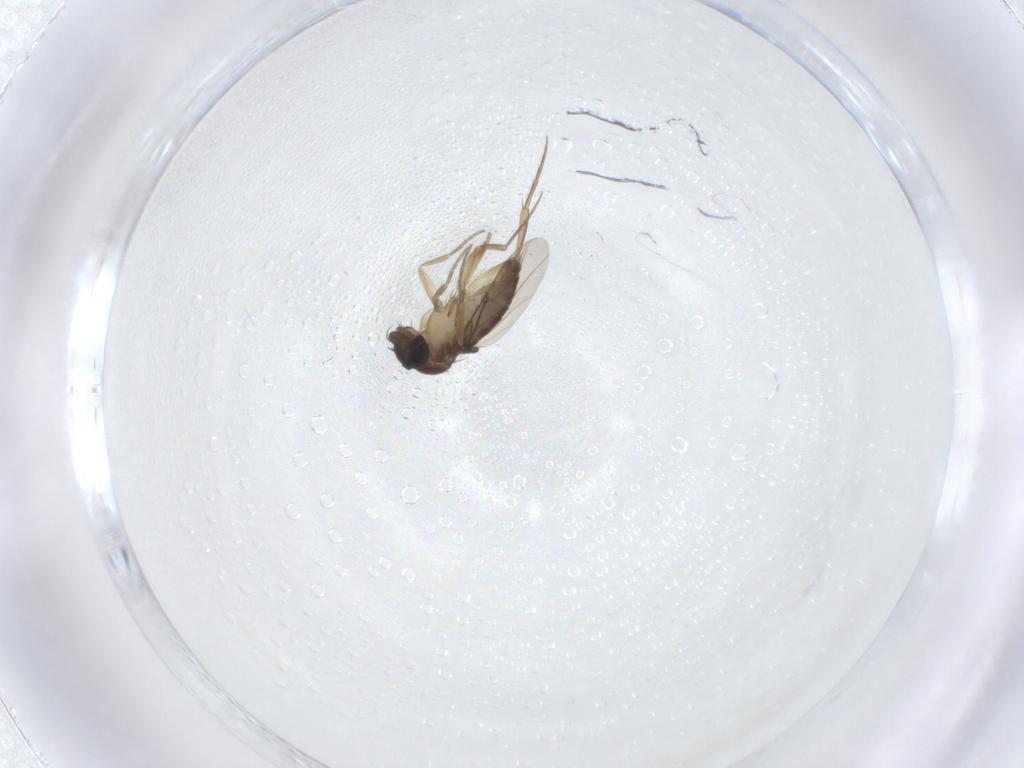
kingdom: Animalia
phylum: Arthropoda
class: Insecta
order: Diptera
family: Phoridae
